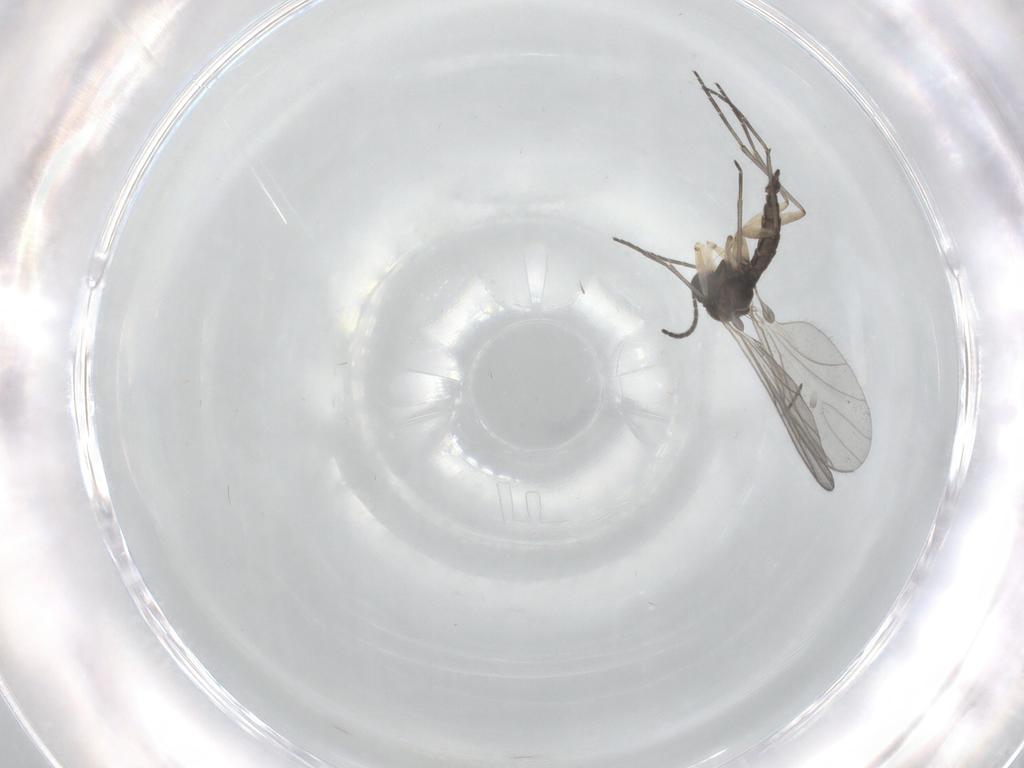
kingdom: Animalia
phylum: Arthropoda
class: Insecta
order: Diptera
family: Sciaridae
